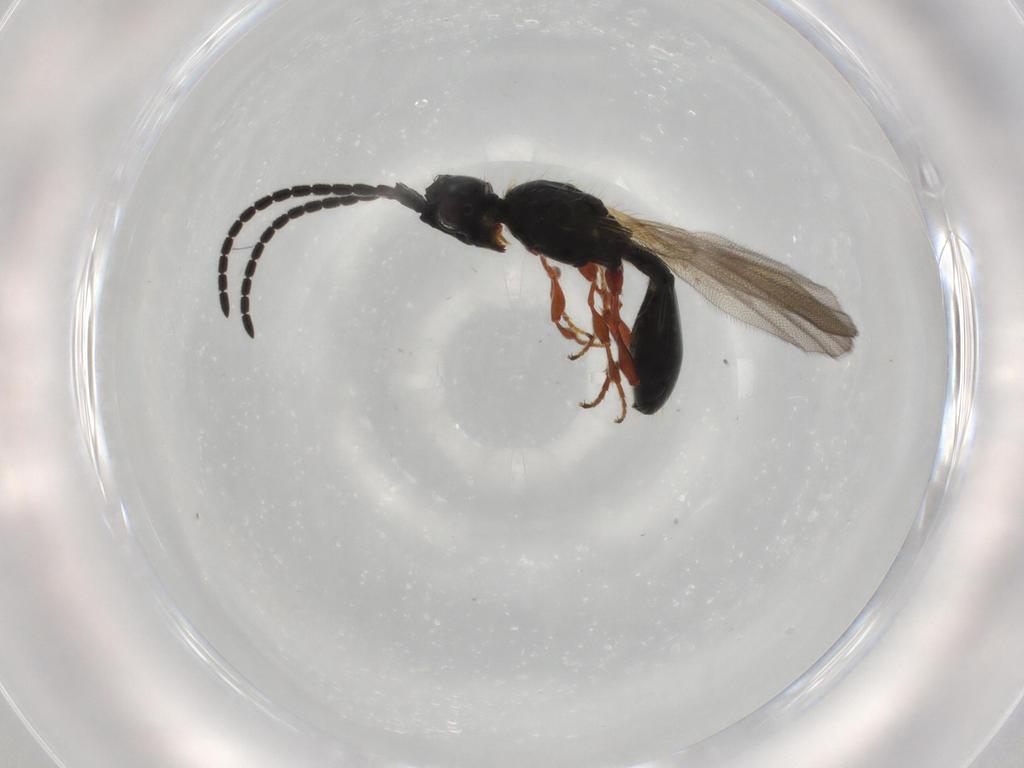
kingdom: Animalia
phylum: Arthropoda
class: Insecta
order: Hymenoptera
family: Diapriidae
